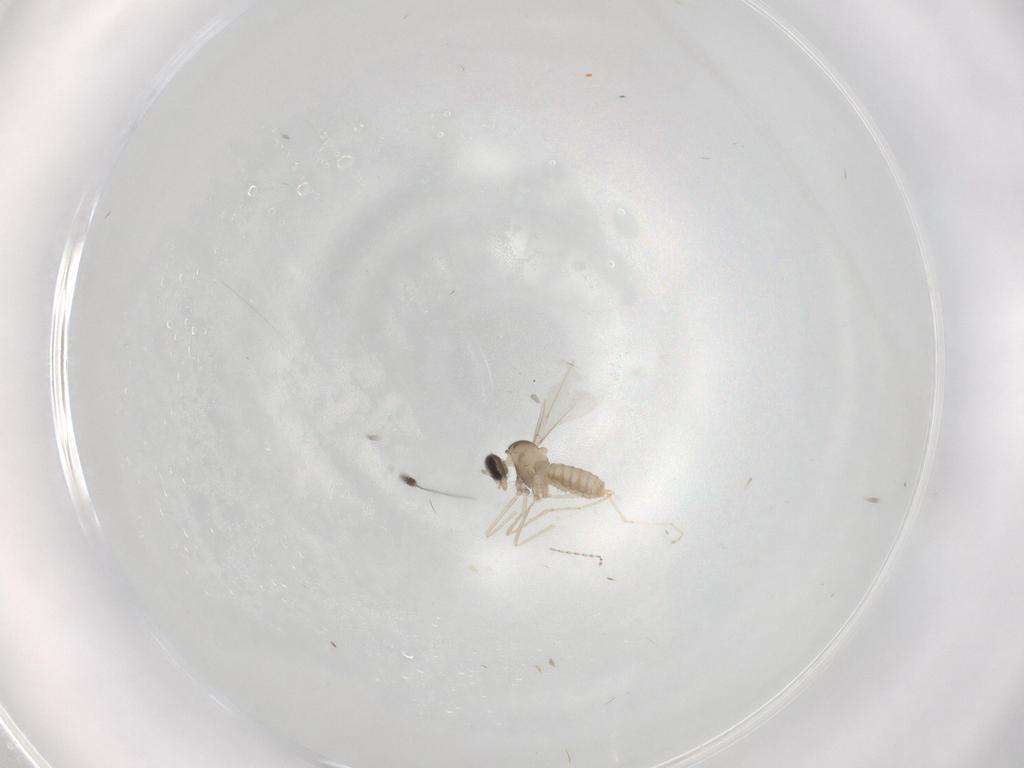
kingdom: Animalia
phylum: Arthropoda
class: Insecta
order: Diptera
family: Cecidomyiidae
